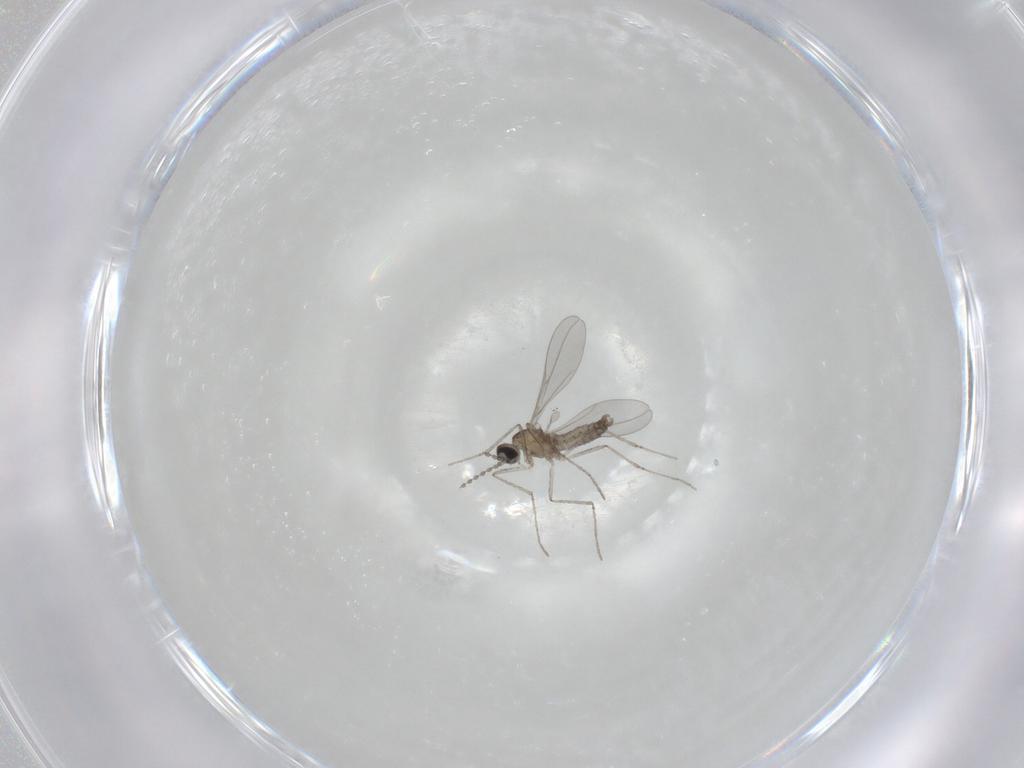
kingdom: Animalia
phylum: Arthropoda
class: Insecta
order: Diptera
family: Cecidomyiidae
